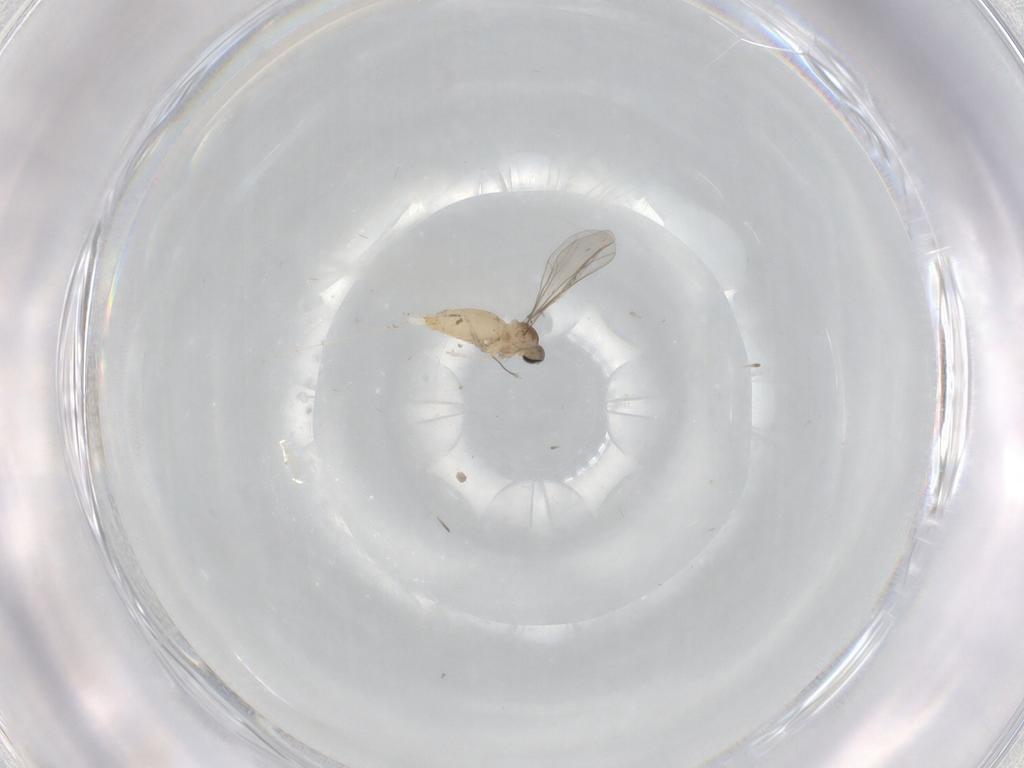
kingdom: Animalia
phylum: Arthropoda
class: Insecta
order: Diptera
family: Cecidomyiidae
